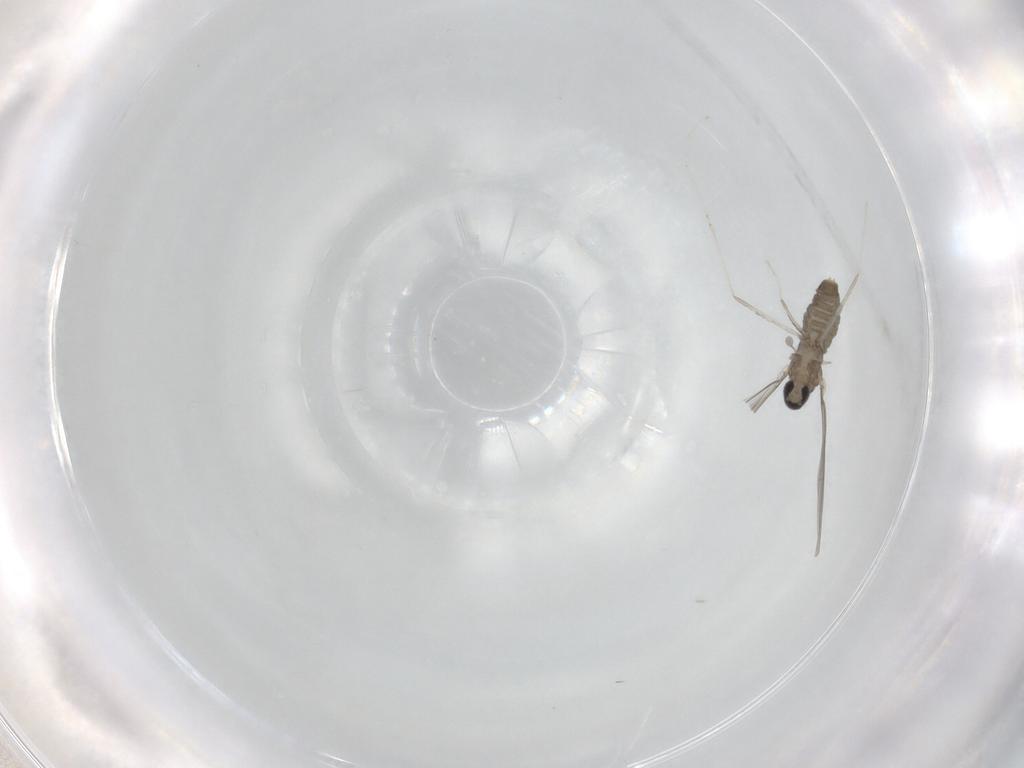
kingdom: Animalia
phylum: Arthropoda
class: Insecta
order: Diptera
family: Cecidomyiidae
